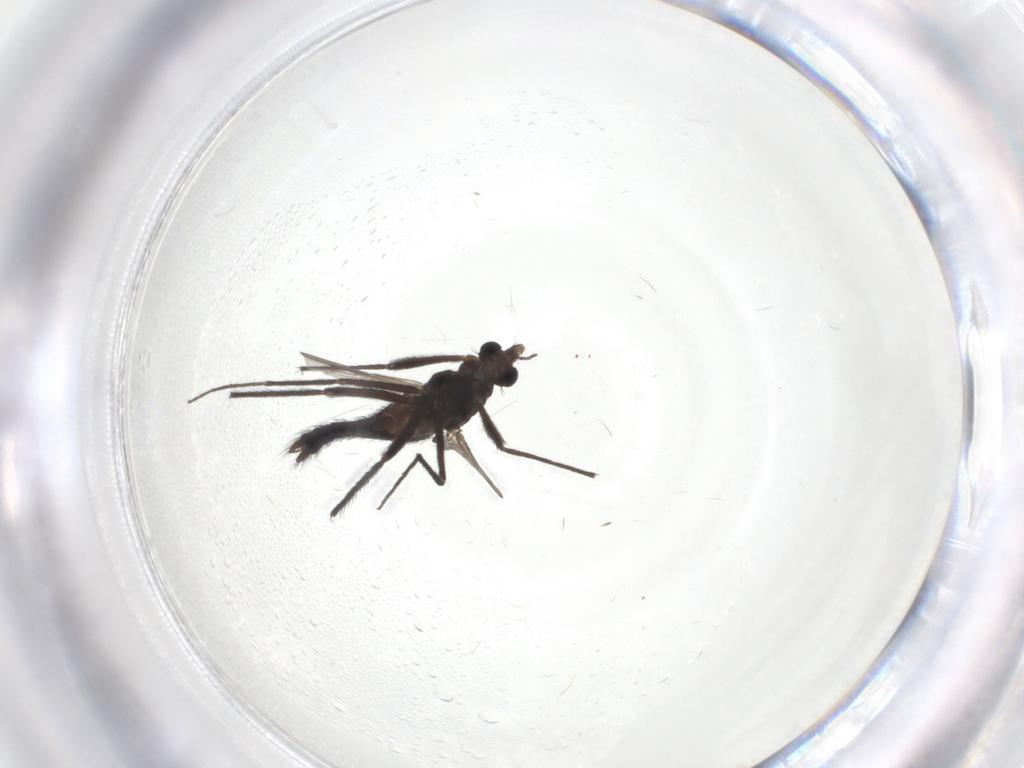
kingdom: Animalia
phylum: Arthropoda
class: Insecta
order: Diptera
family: Chironomidae
